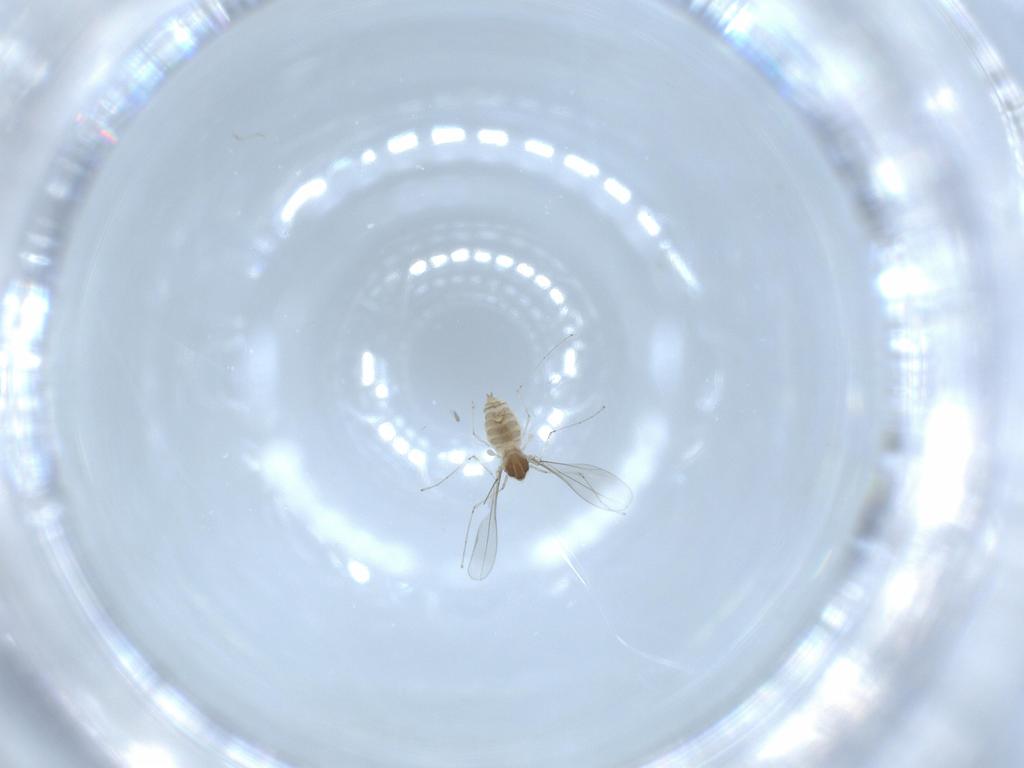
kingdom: Animalia
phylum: Arthropoda
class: Insecta
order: Diptera
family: Cecidomyiidae
